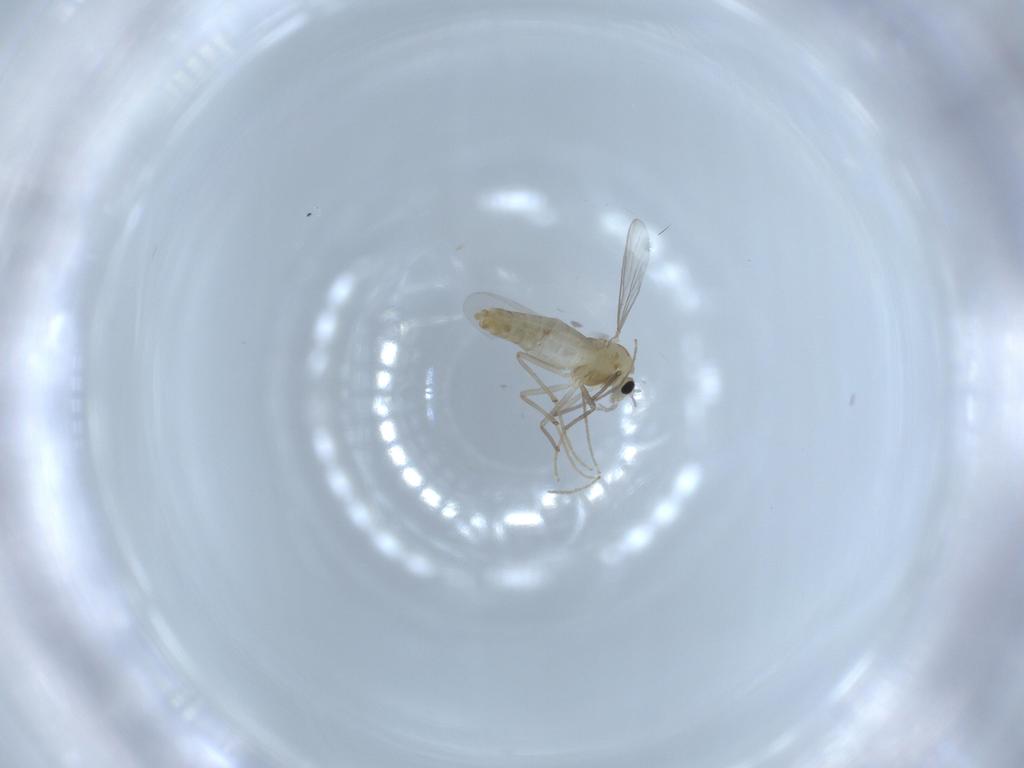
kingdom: Animalia
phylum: Arthropoda
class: Insecta
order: Diptera
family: Chironomidae
